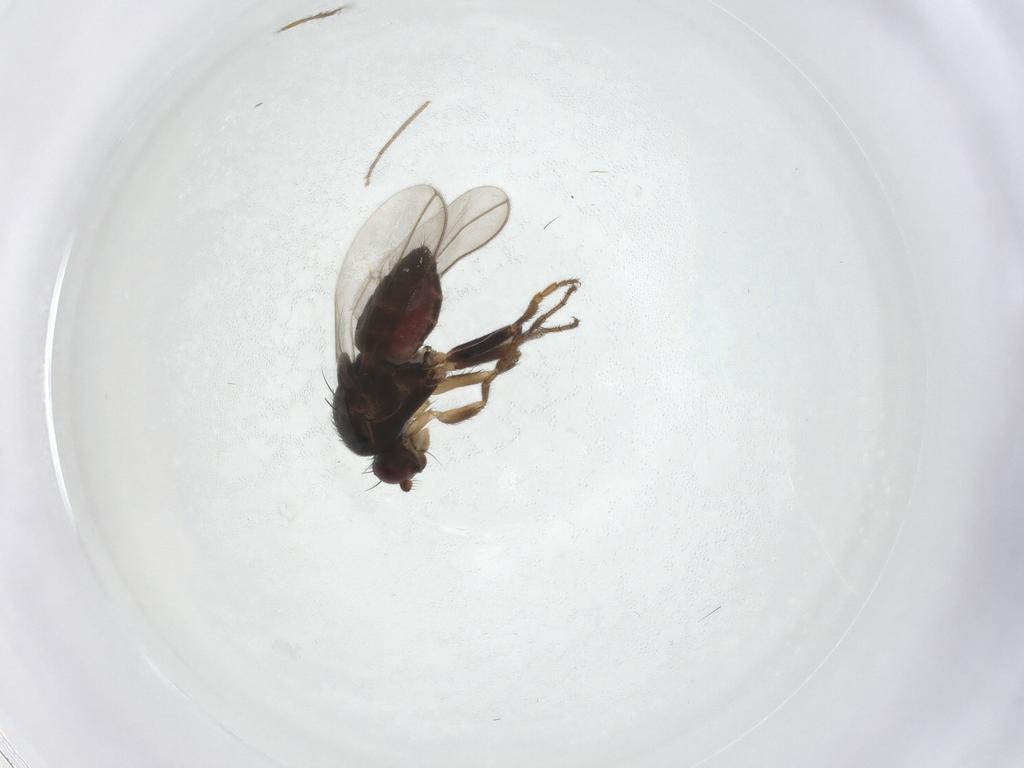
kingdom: Animalia
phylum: Arthropoda
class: Insecta
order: Diptera
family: Sphaeroceridae
